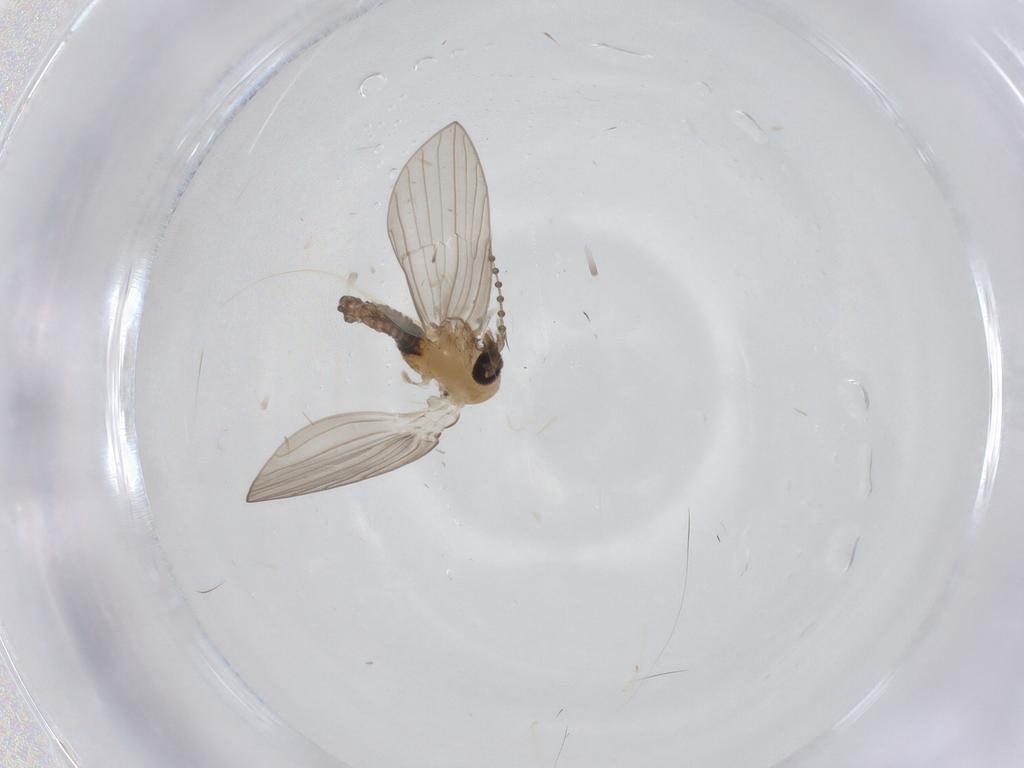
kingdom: Animalia
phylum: Arthropoda
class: Insecta
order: Diptera
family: Psychodidae
